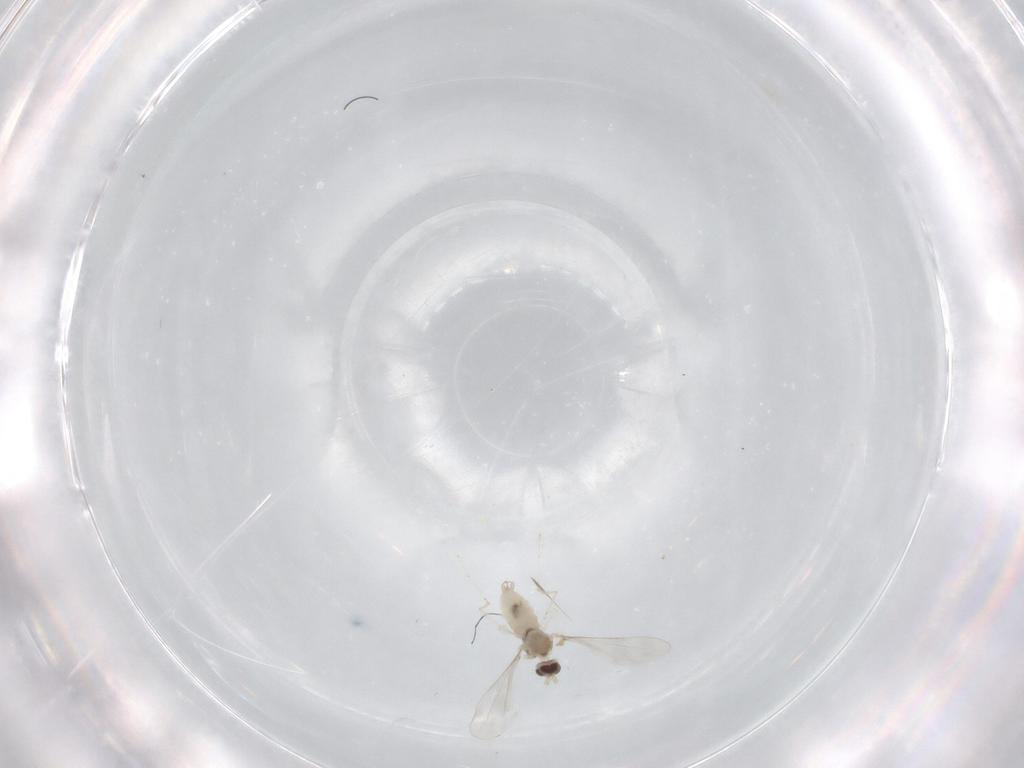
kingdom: Animalia
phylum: Arthropoda
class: Insecta
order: Diptera
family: Cecidomyiidae
